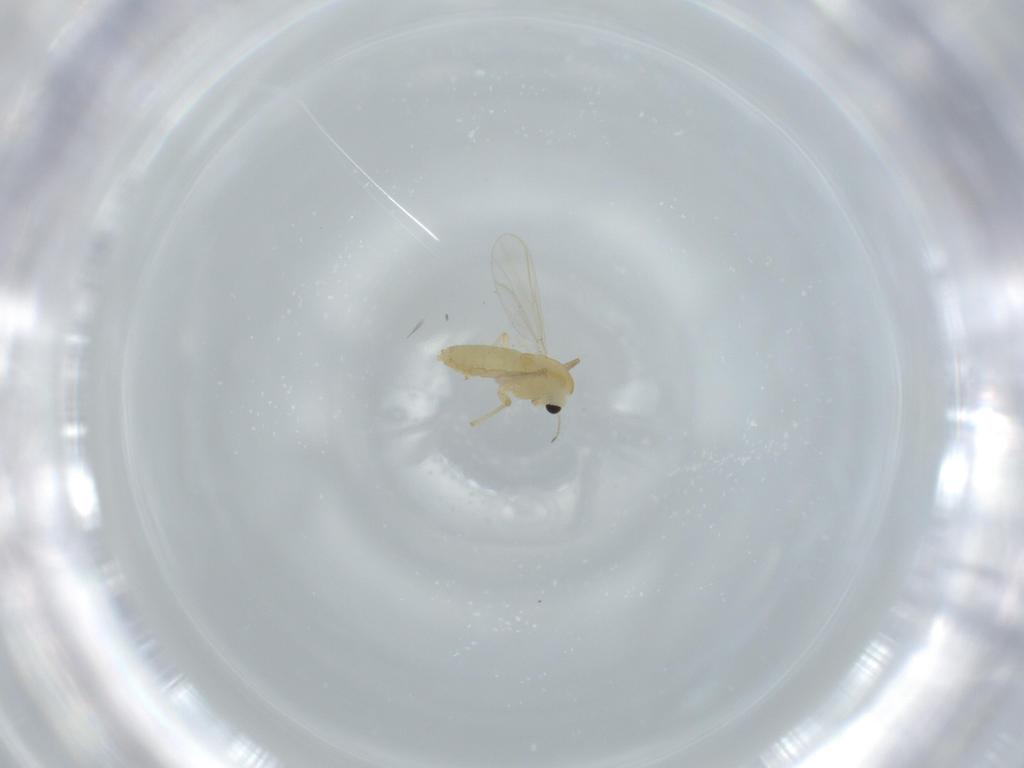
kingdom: Animalia
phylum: Arthropoda
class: Insecta
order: Diptera
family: Chironomidae
